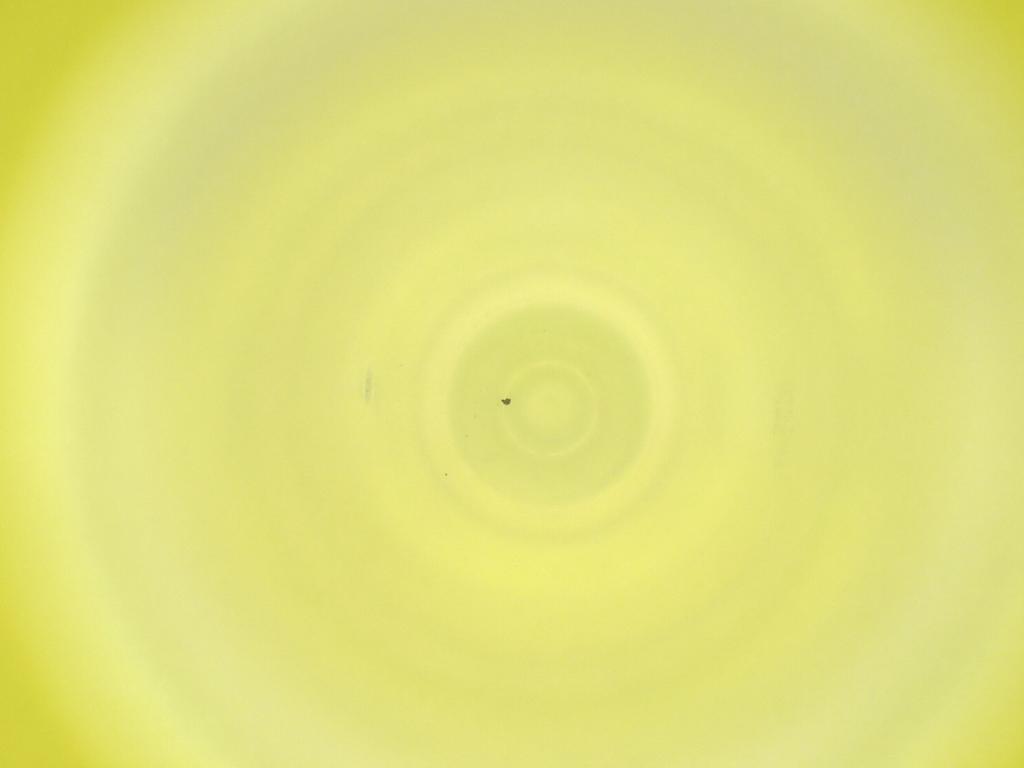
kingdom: Animalia
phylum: Arthropoda
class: Insecta
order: Diptera
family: Cecidomyiidae
